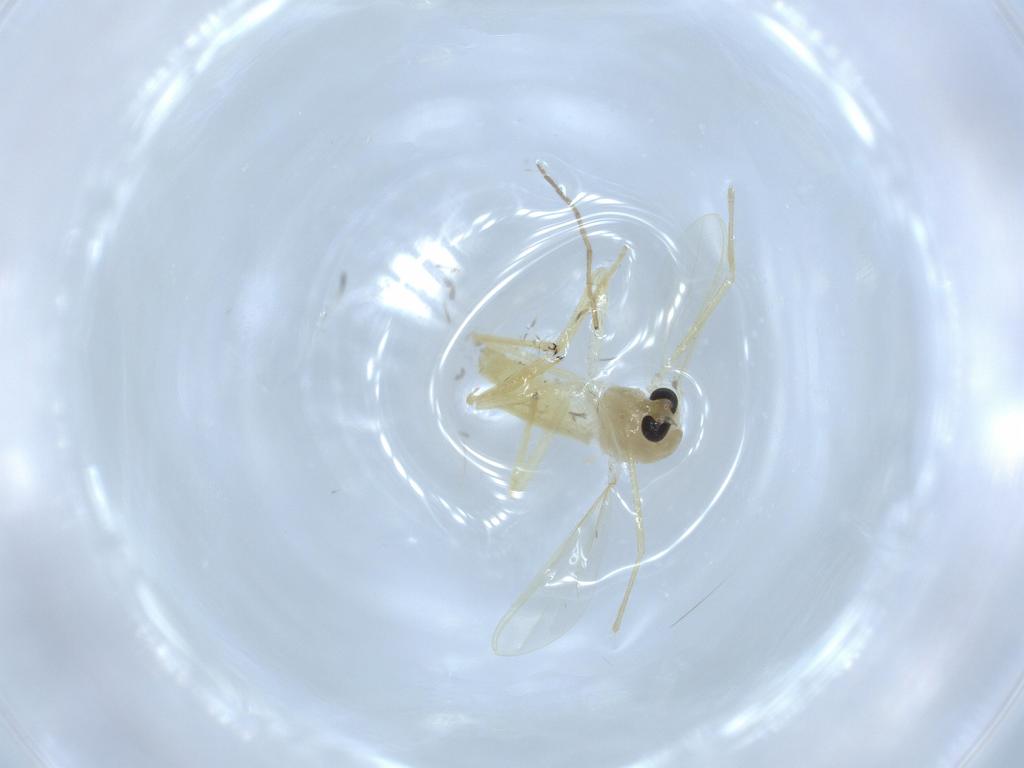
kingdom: Animalia
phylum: Arthropoda
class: Insecta
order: Diptera
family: Chironomidae
